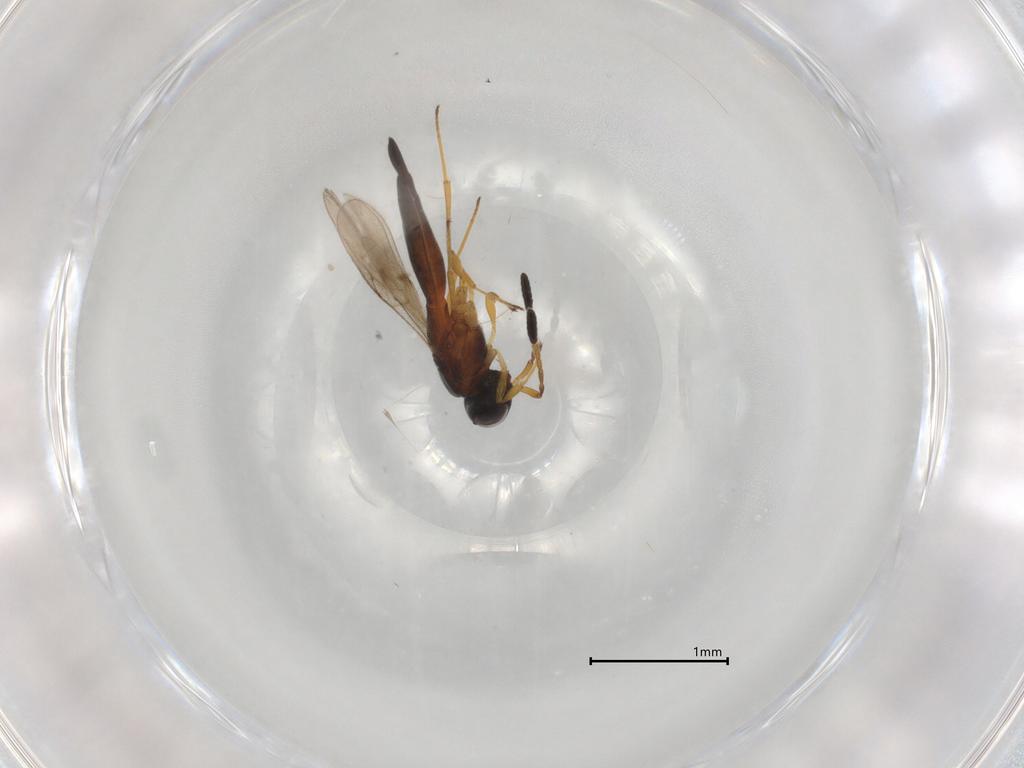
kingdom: Animalia
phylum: Arthropoda
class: Insecta
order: Hymenoptera
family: Scelionidae
